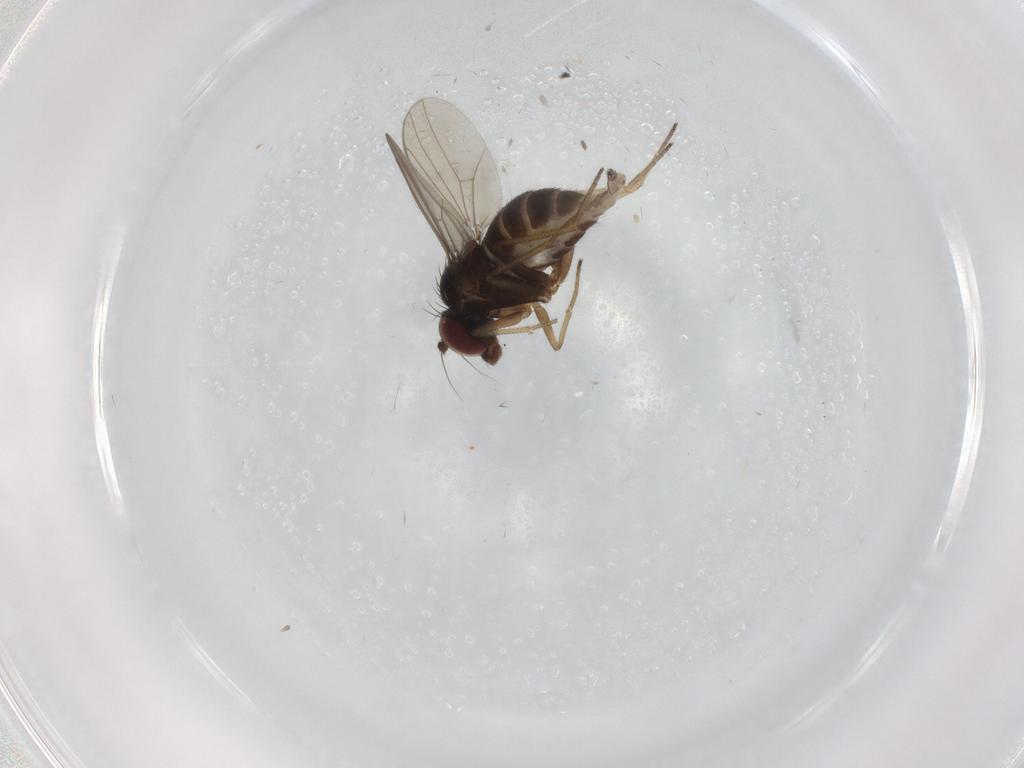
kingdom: Animalia
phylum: Arthropoda
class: Insecta
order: Diptera
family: Dolichopodidae
